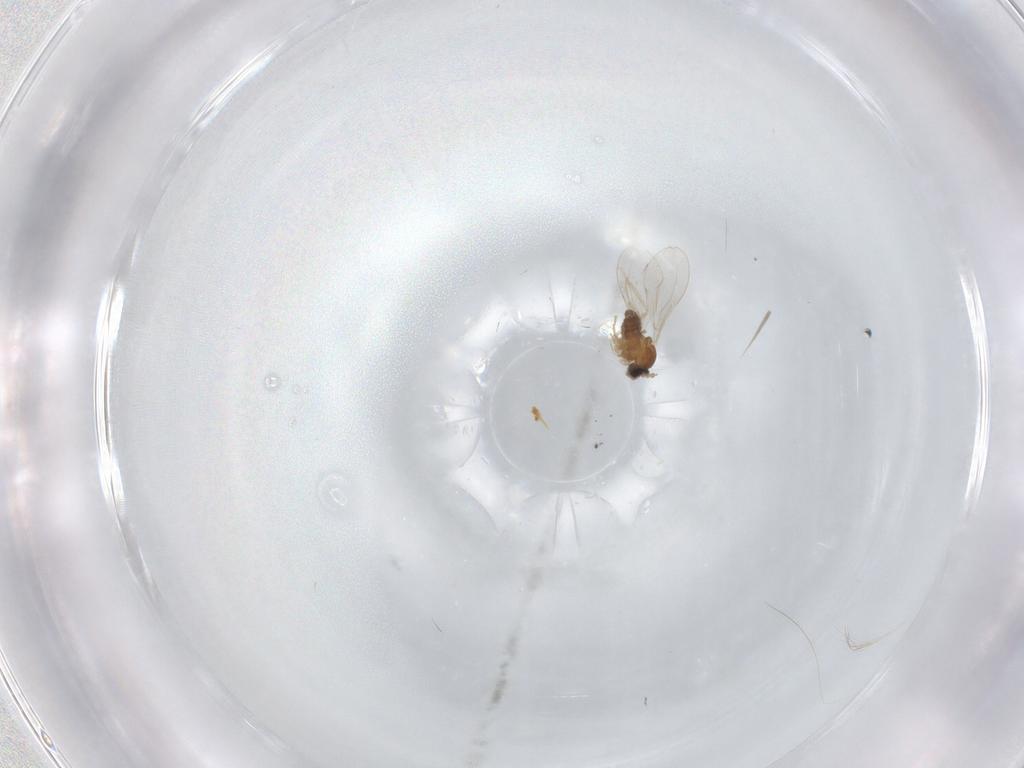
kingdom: Animalia
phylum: Arthropoda
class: Insecta
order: Diptera
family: Cecidomyiidae
